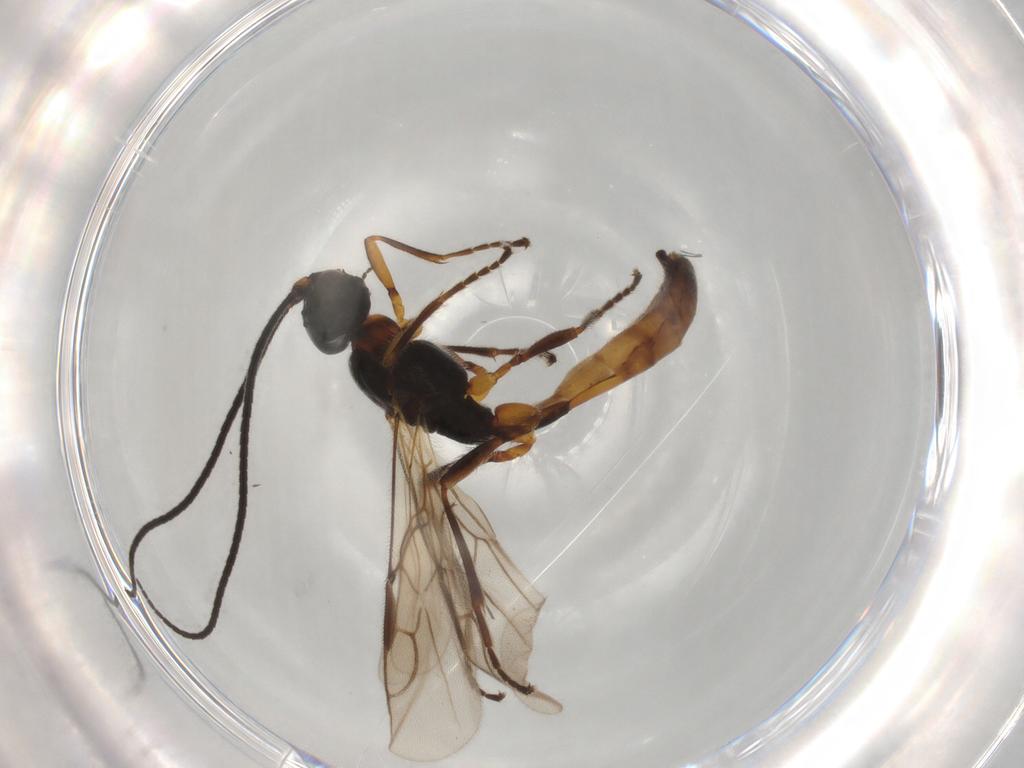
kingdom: Animalia
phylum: Arthropoda
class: Insecta
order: Hymenoptera
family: Braconidae
